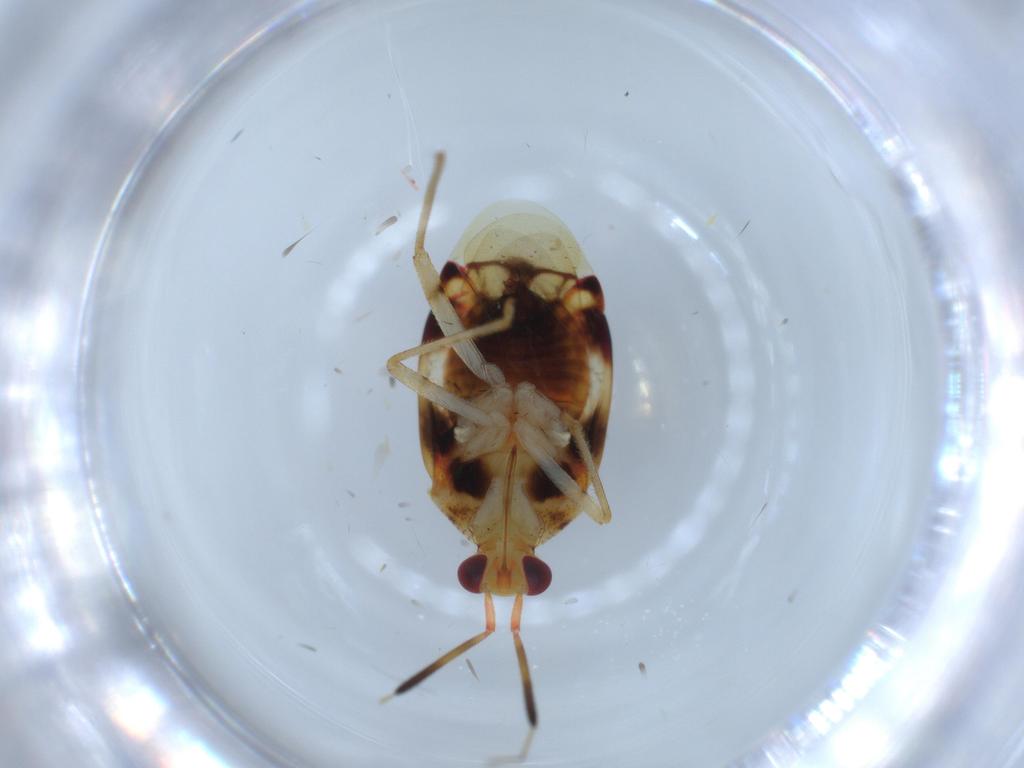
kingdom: Animalia
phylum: Arthropoda
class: Insecta
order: Hemiptera
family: Miridae
